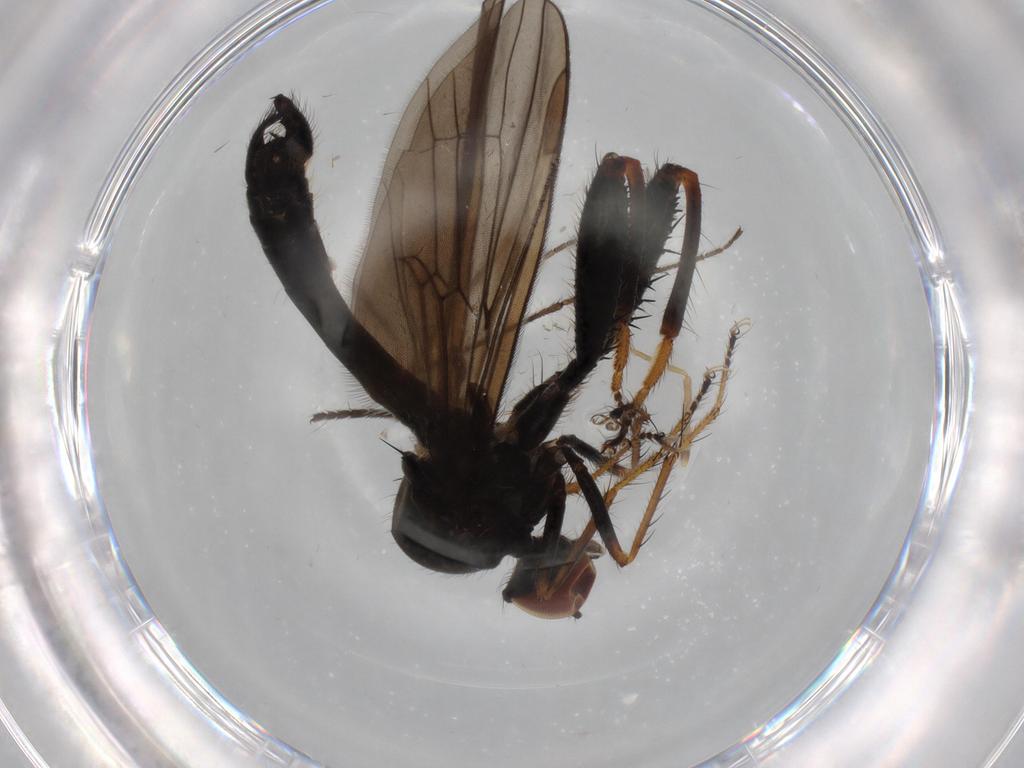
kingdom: Animalia
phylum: Arthropoda
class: Insecta
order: Diptera
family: Hybotidae
